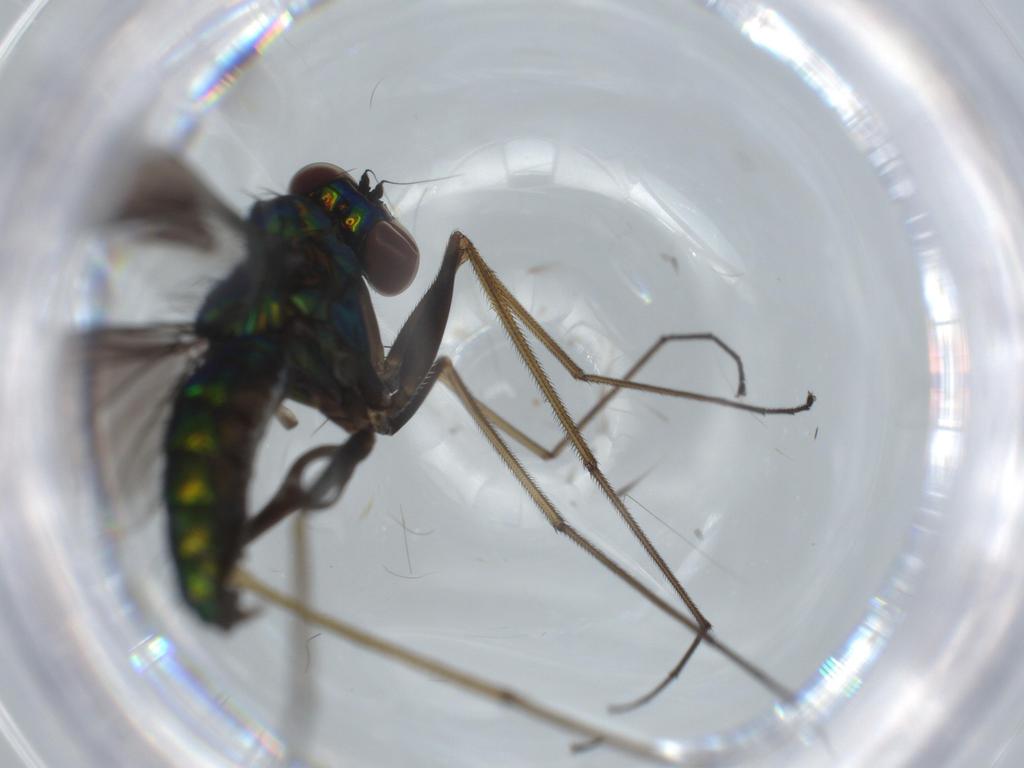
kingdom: Animalia
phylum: Arthropoda
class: Insecta
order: Diptera
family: Dolichopodidae
